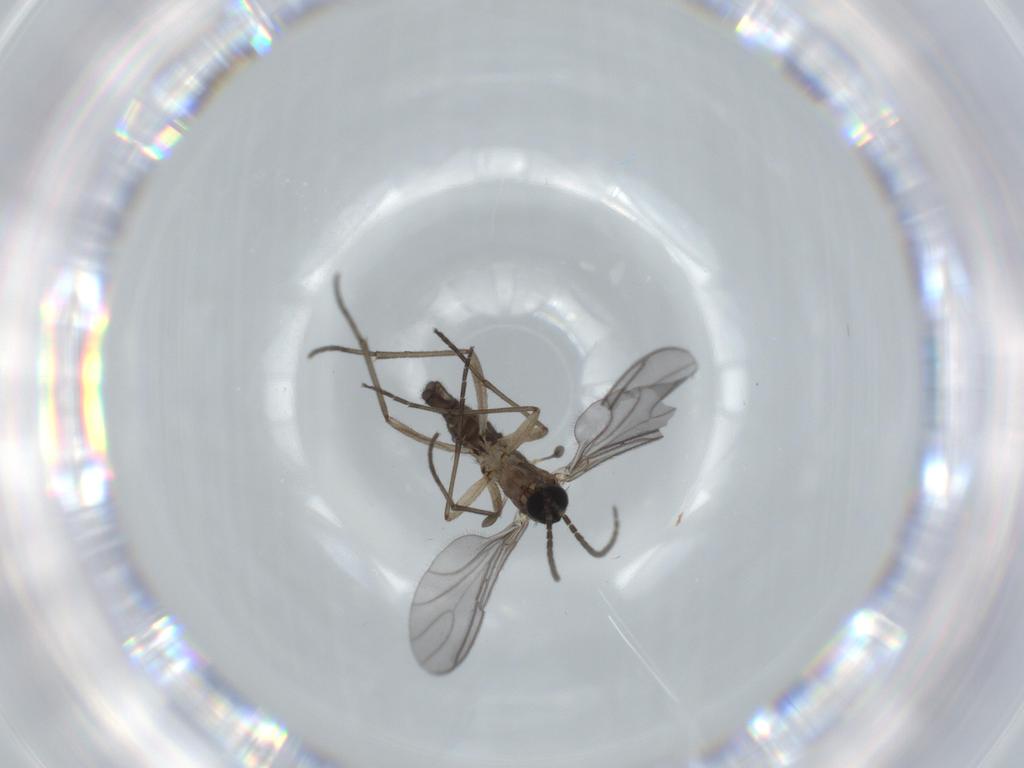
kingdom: Animalia
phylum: Arthropoda
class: Insecta
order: Diptera
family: Sciaridae
